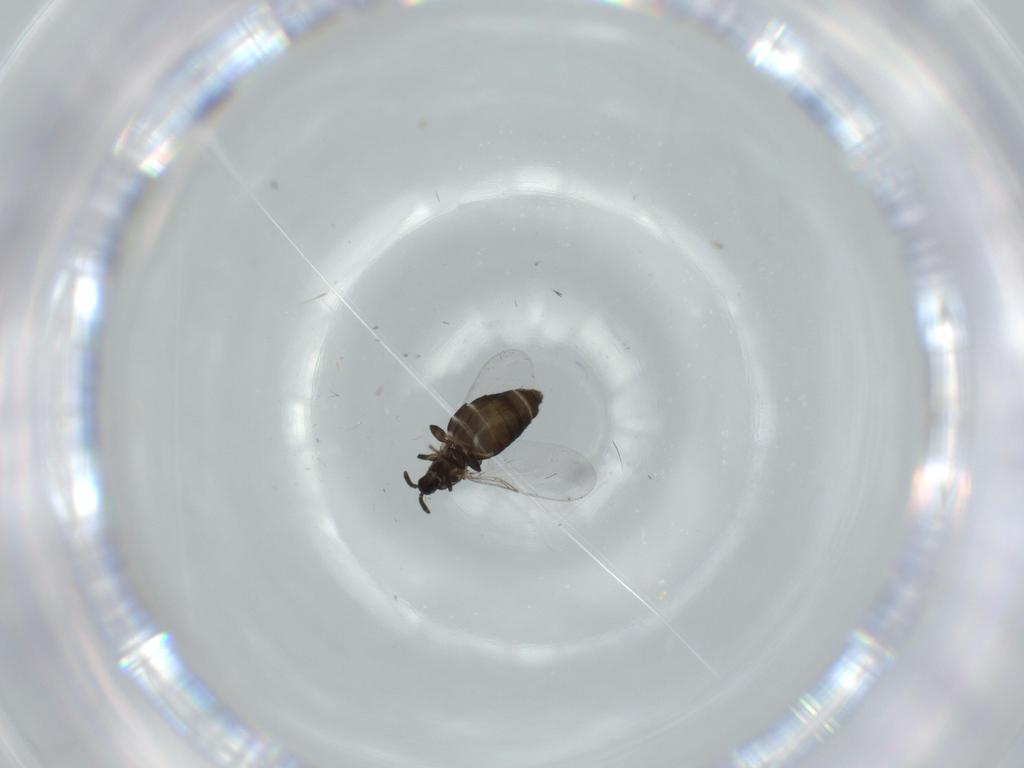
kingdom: Animalia
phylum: Arthropoda
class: Insecta
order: Diptera
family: Scatopsidae
